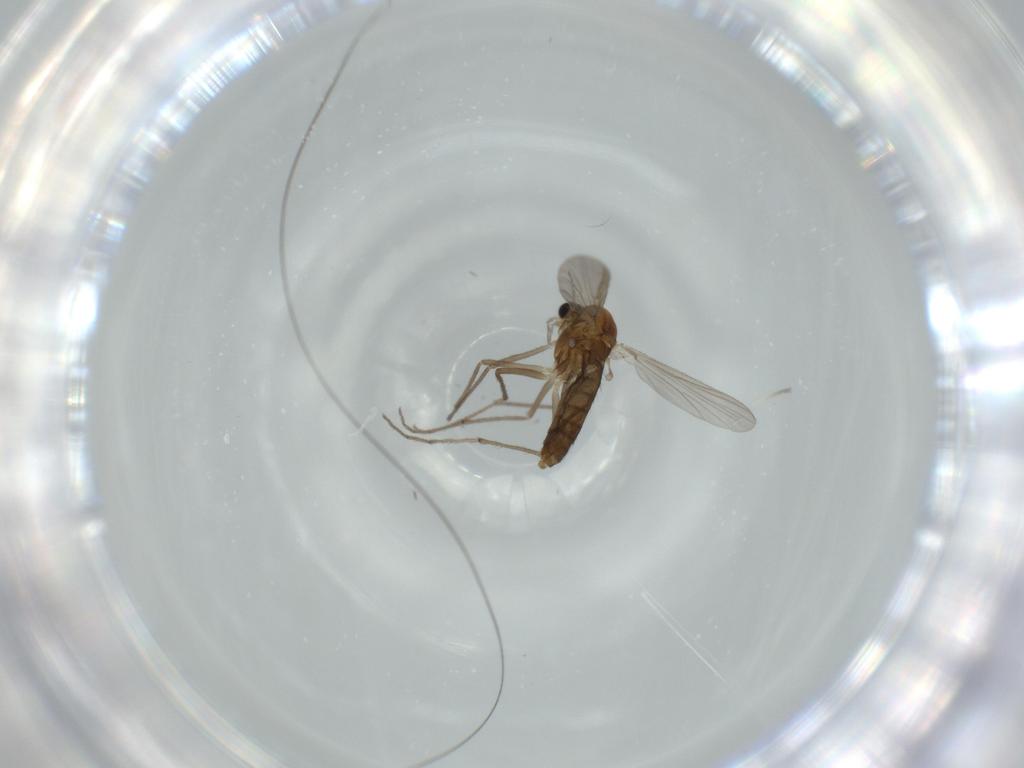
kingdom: Animalia
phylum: Arthropoda
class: Insecta
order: Diptera
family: Chironomidae
